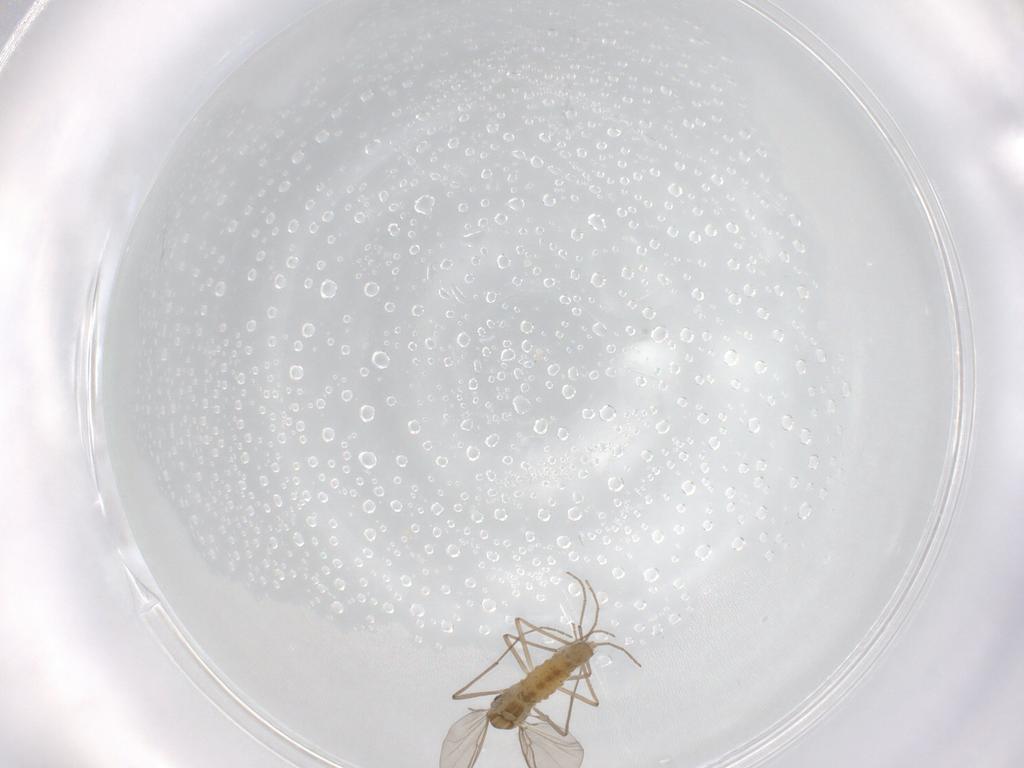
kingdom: Animalia
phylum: Arthropoda
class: Insecta
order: Diptera
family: Chironomidae
